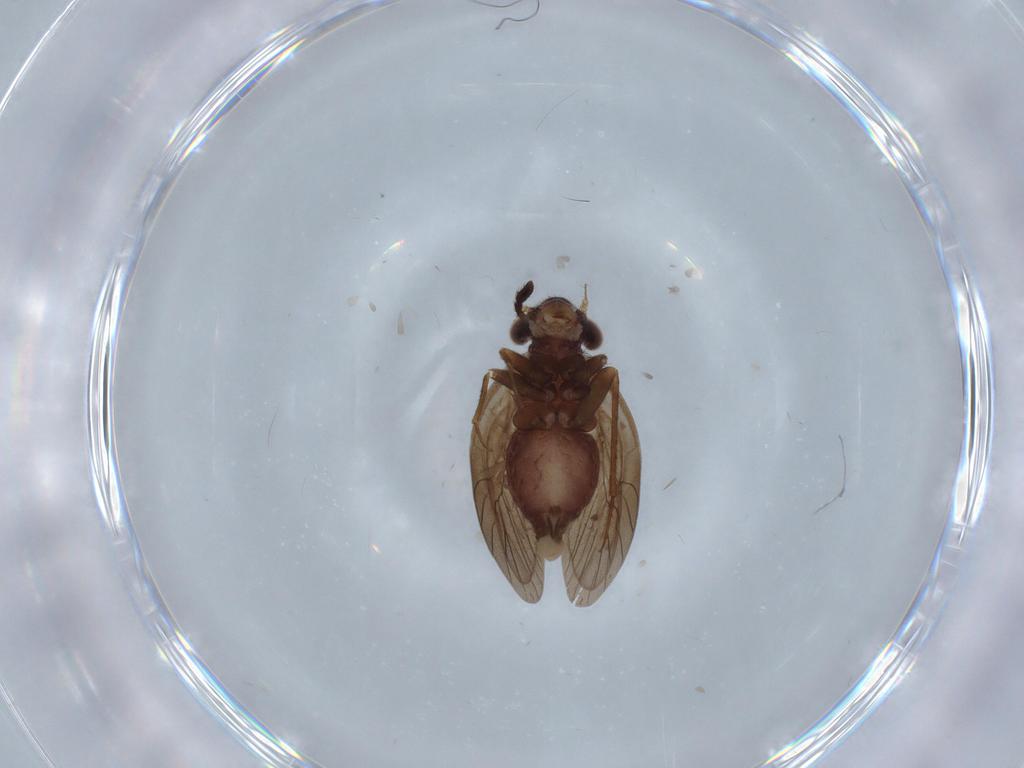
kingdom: Animalia
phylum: Arthropoda
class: Insecta
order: Psocodea
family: Lepidopsocidae
